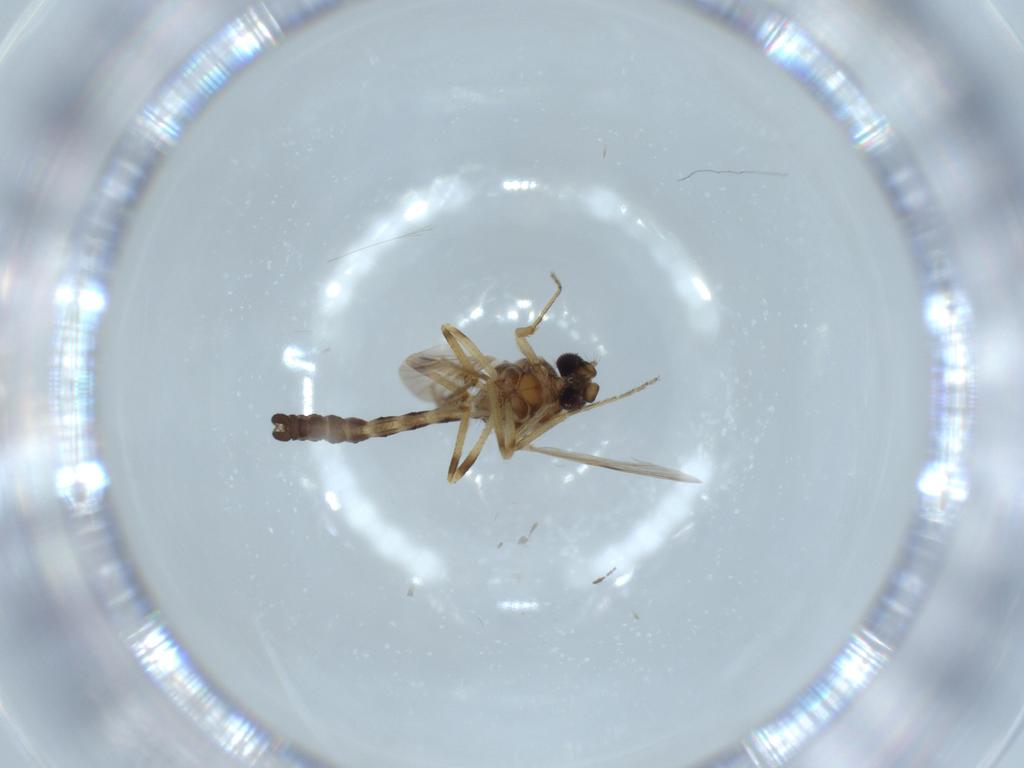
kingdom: Animalia
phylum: Arthropoda
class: Insecta
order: Diptera
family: Ceratopogonidae
